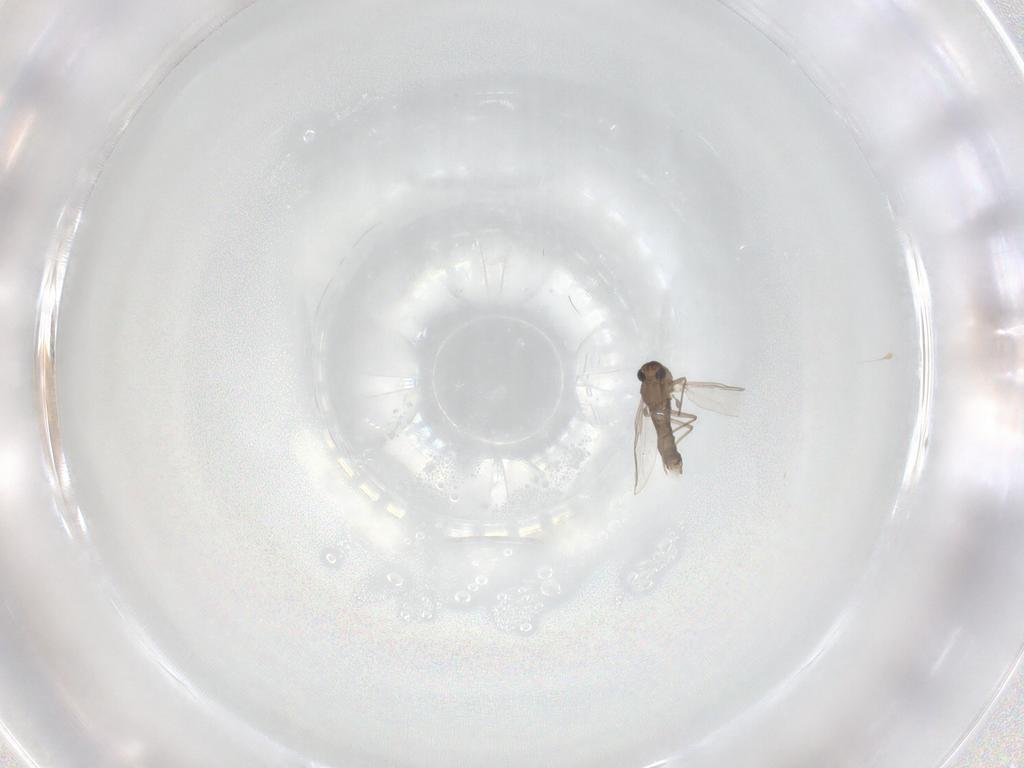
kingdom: Animalia
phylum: Arthropoda
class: Insecta
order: Diptera
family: Chironomidae
